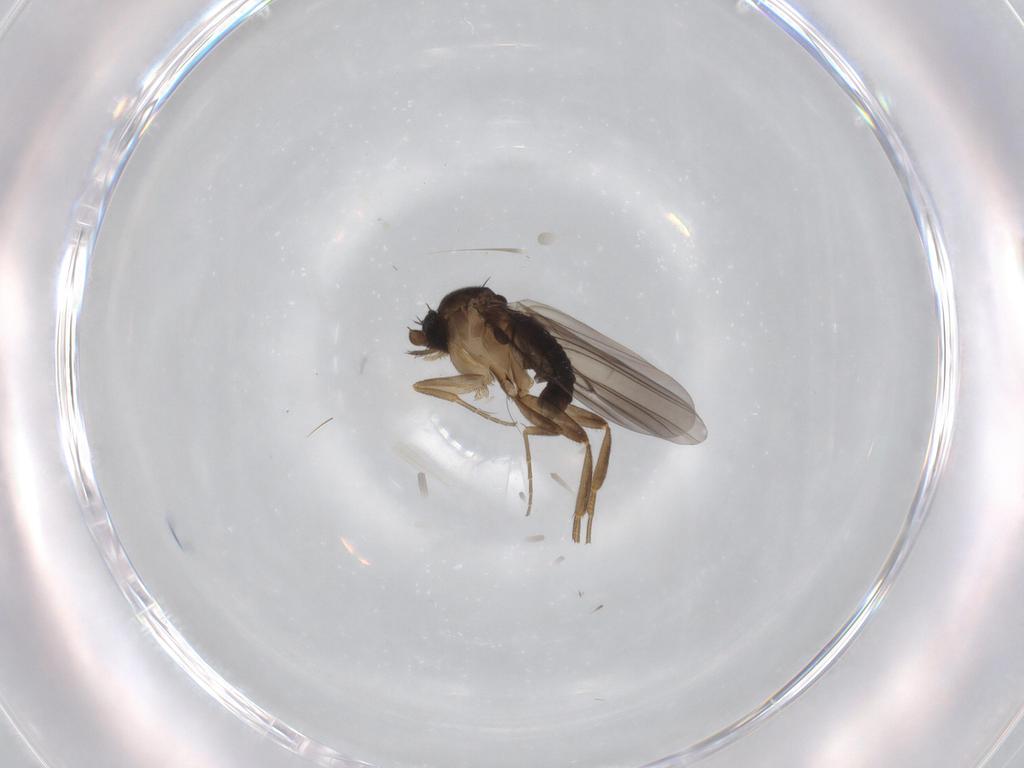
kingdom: Animalia
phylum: Arthropoda
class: Insecta
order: Diptera
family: Phoridae
